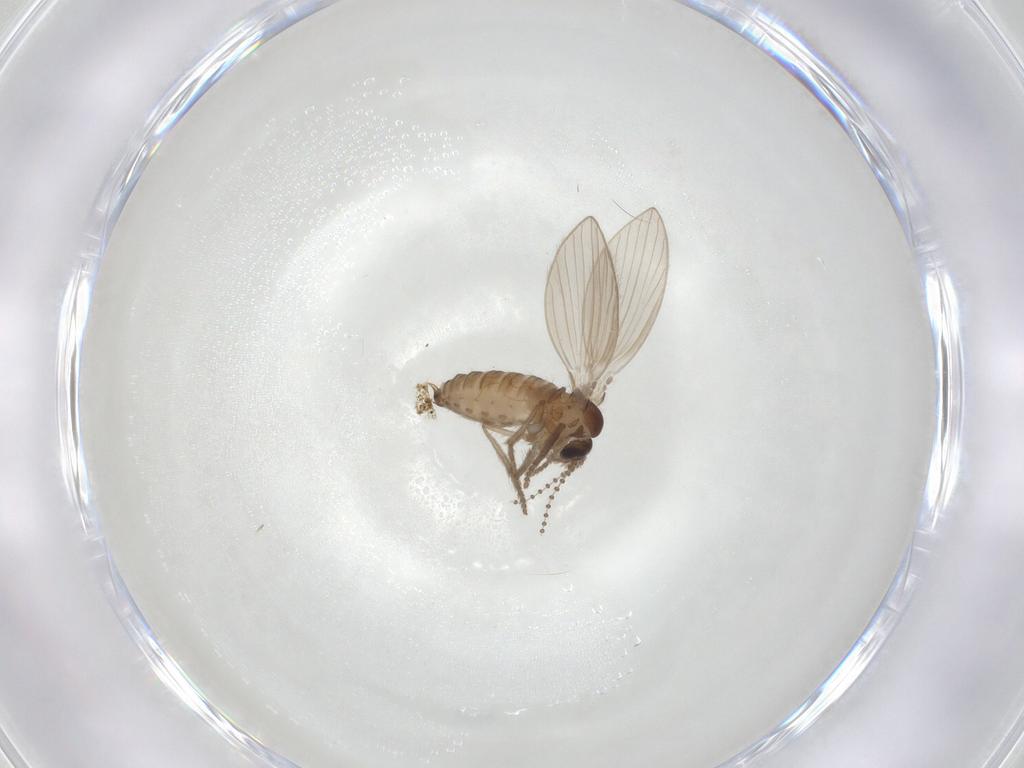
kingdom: Animalia
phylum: Arthropoda
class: Insecta
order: Diptera
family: Psychodidae
